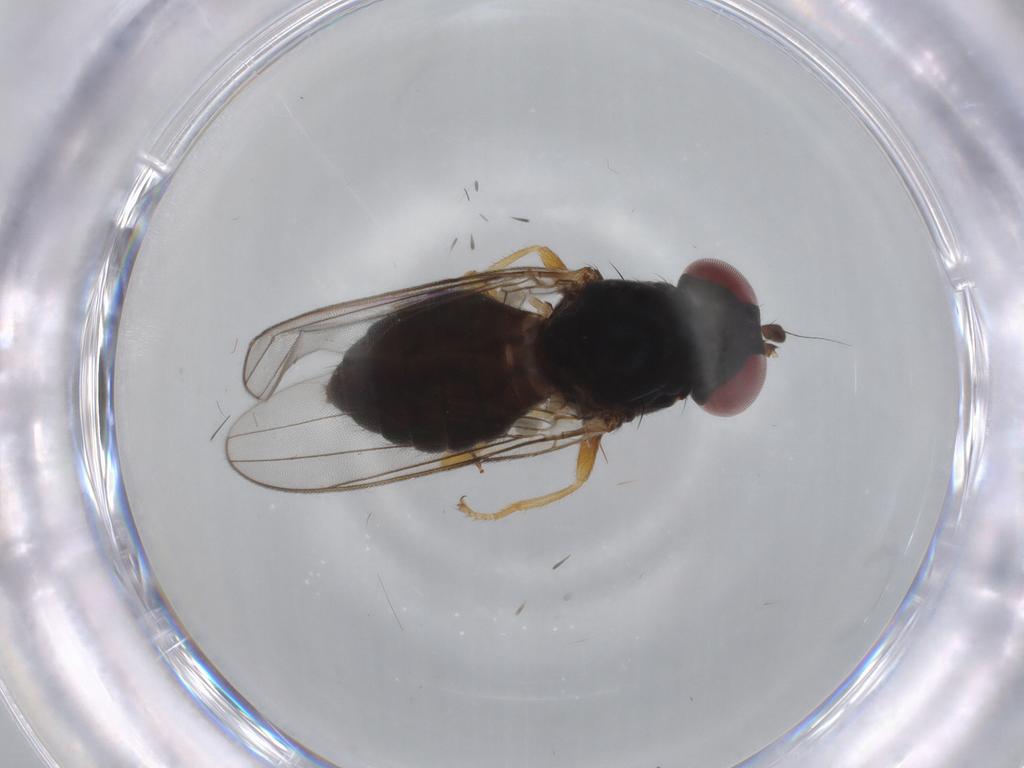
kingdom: Animalia
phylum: Arthropoda
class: Insecta
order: Diptera
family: Aulacigastridae
